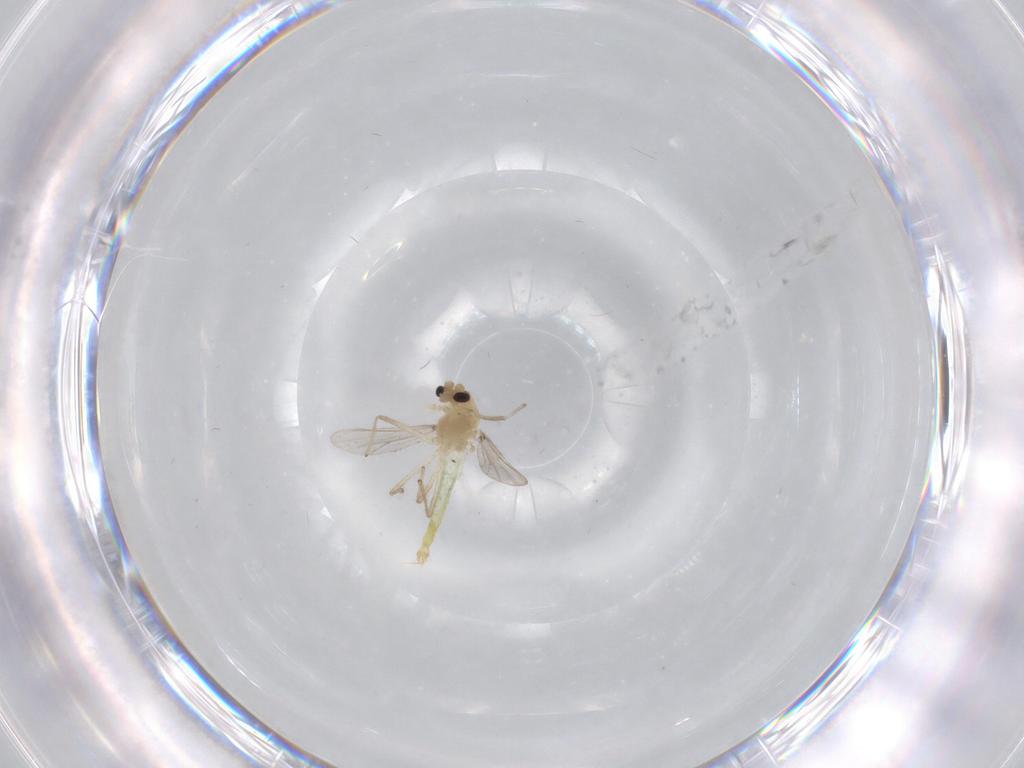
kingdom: Animalia
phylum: Arthropoda
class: Insecta
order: Diptera
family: Chironomidae
